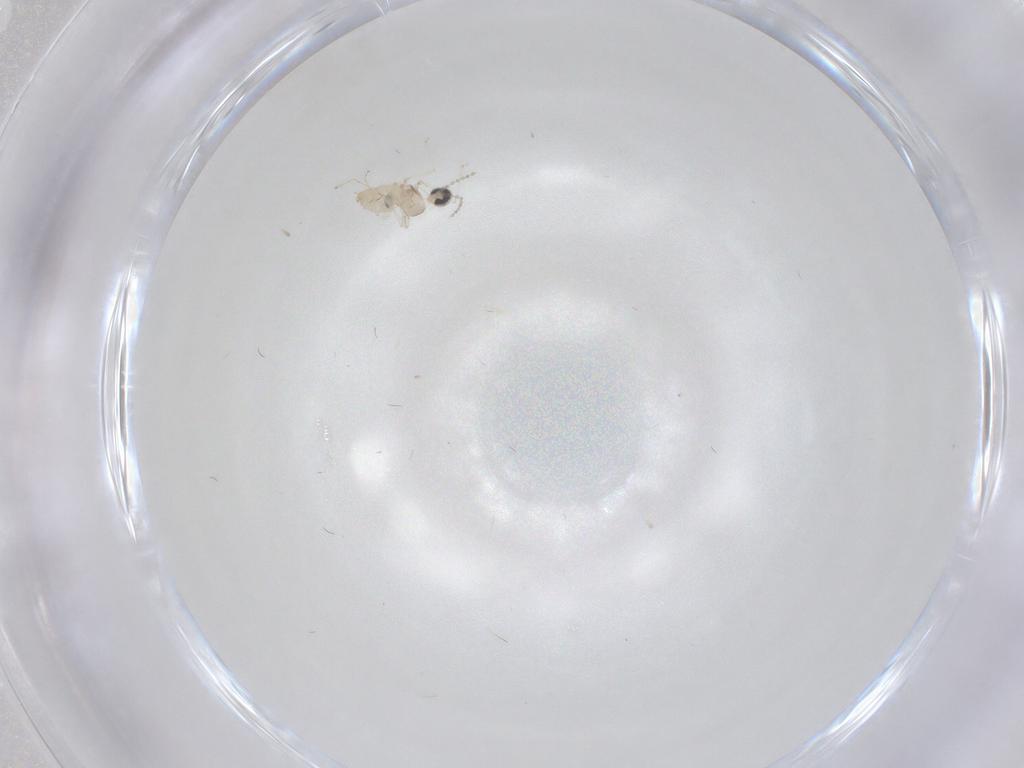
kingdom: Animalia
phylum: Arthropoda
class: Insecta
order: Diptera
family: Cecidomyiidae
